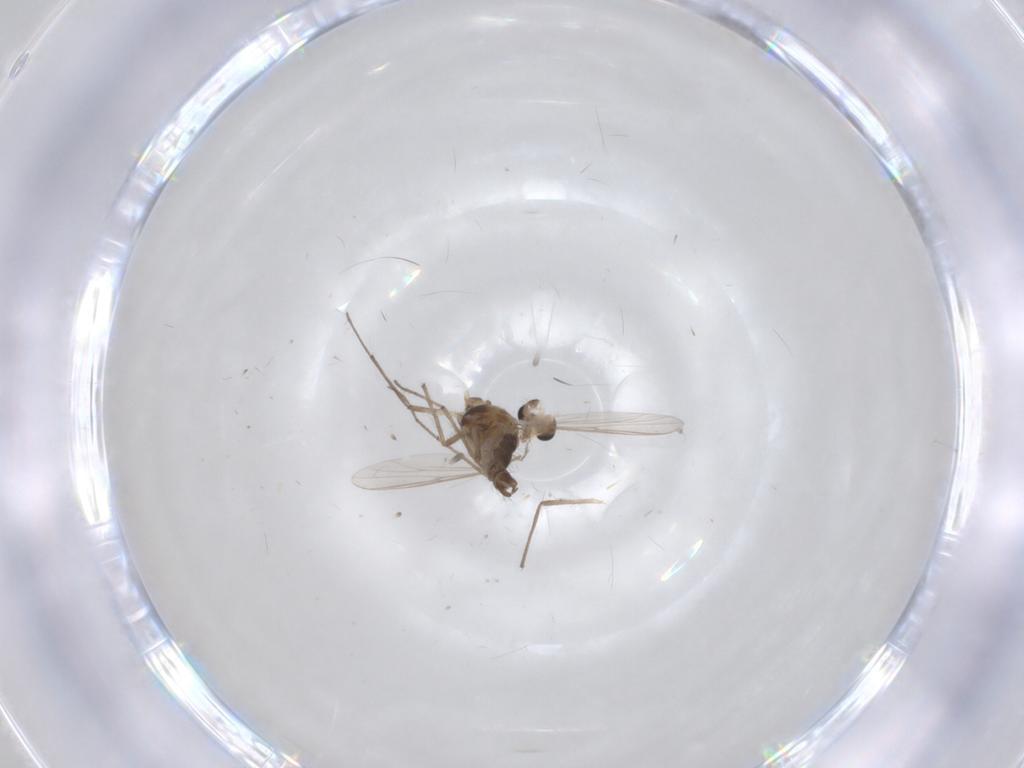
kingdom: Animalia
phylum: Arthropoda
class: Insecta
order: Diptera
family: Chironomidae
